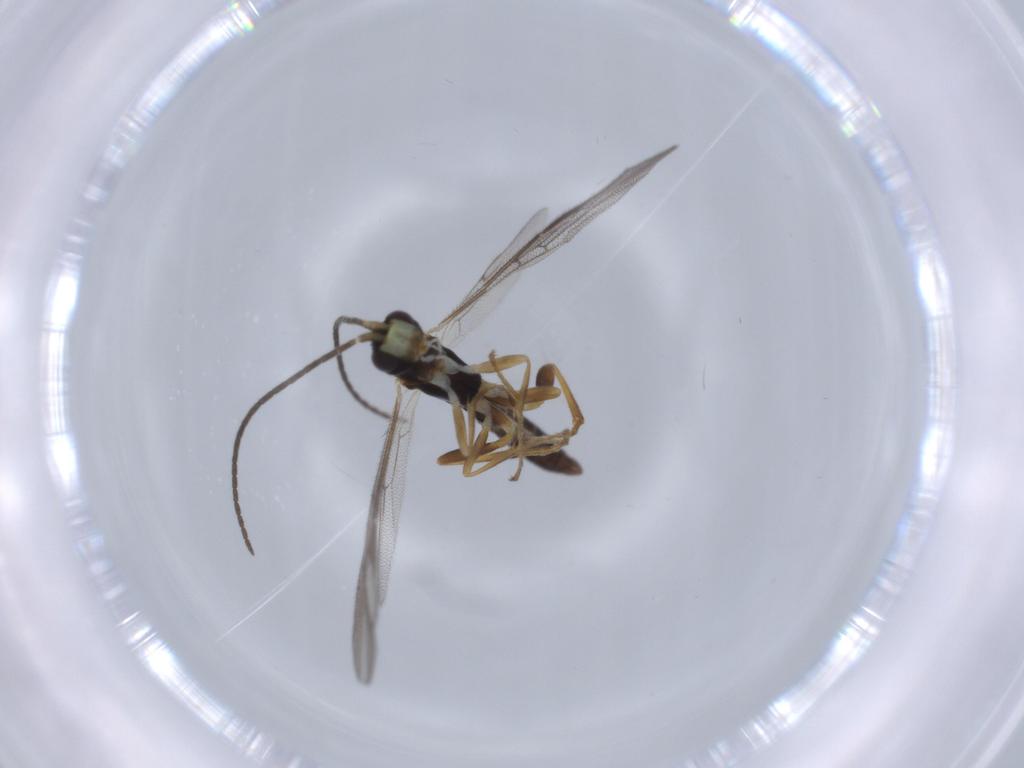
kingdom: Animalia
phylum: Arthropoda
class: Insecta
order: Hymenoptera
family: Ichneumonidae
